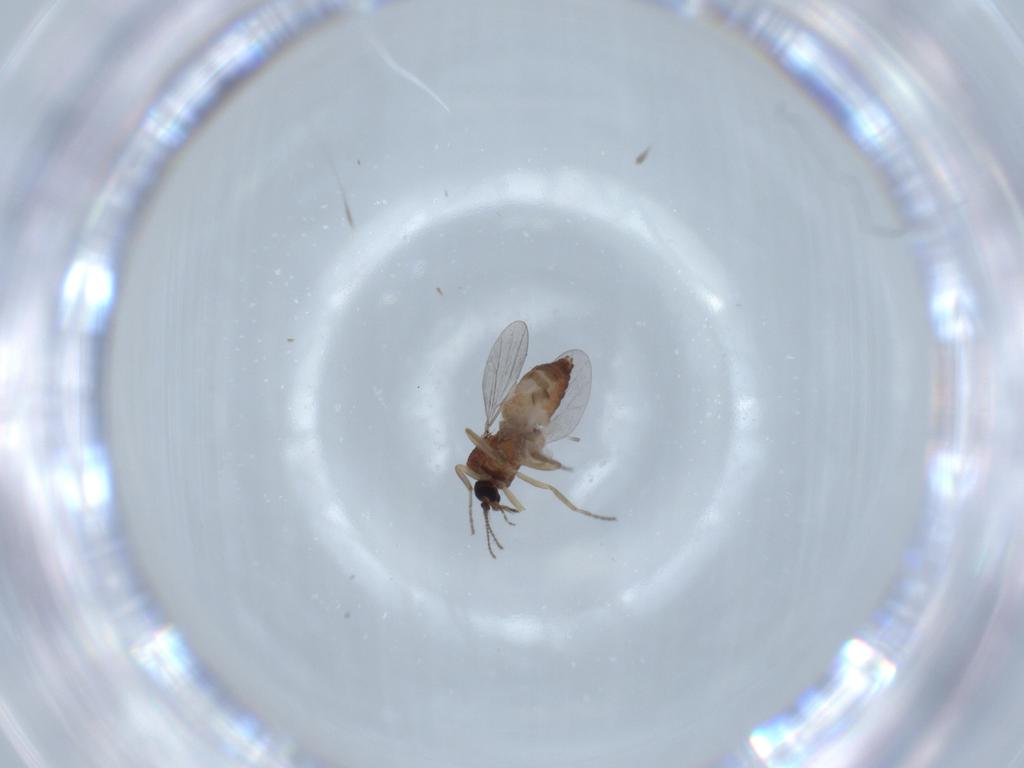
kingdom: Animalia
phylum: Arthropoda
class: Insecta
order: Diptera
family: Ceratopogonidae
